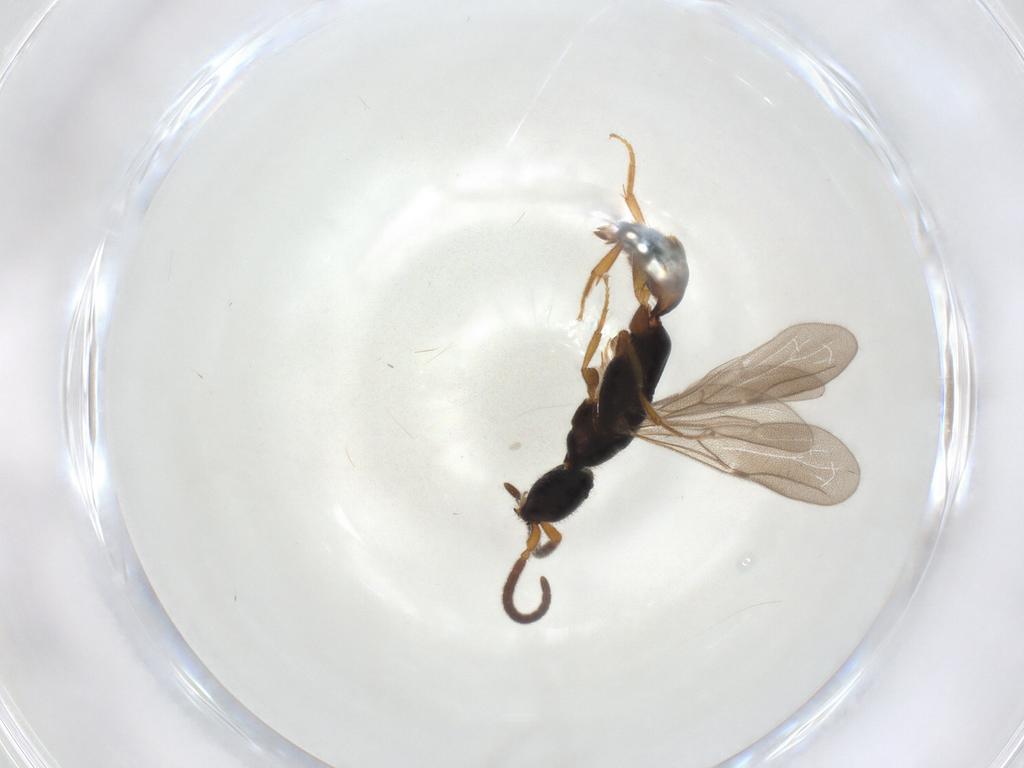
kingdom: Animalia
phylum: Arthropoda
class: Insecta
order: Hymenoptera
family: Bethylidae
